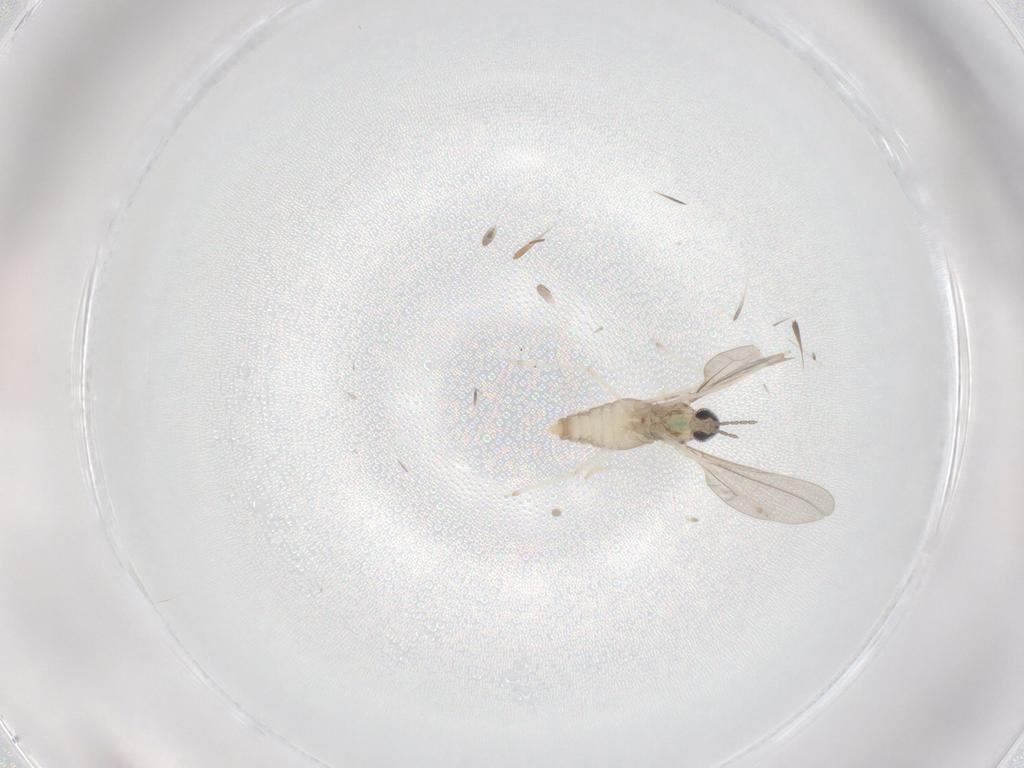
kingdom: Animalia
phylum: Arthropoda
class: Insecta
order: Diptera
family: Cecidomyiidae
